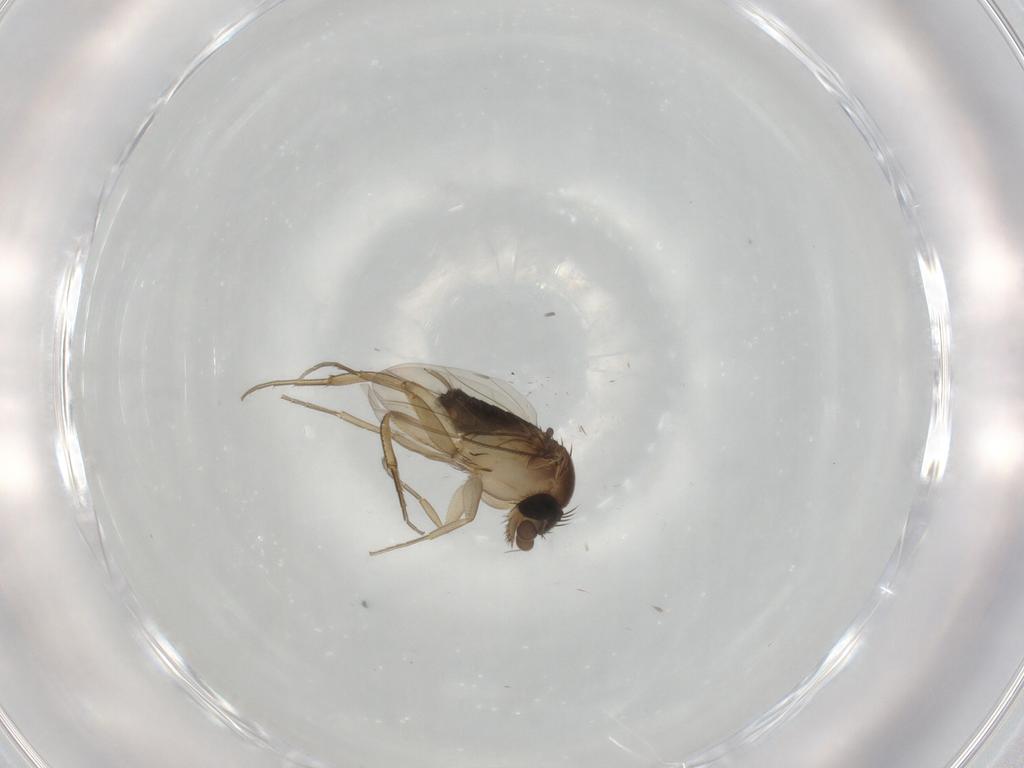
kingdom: Animalia
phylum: Arthropoda
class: Insecta
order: Diptera
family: Phoridae
